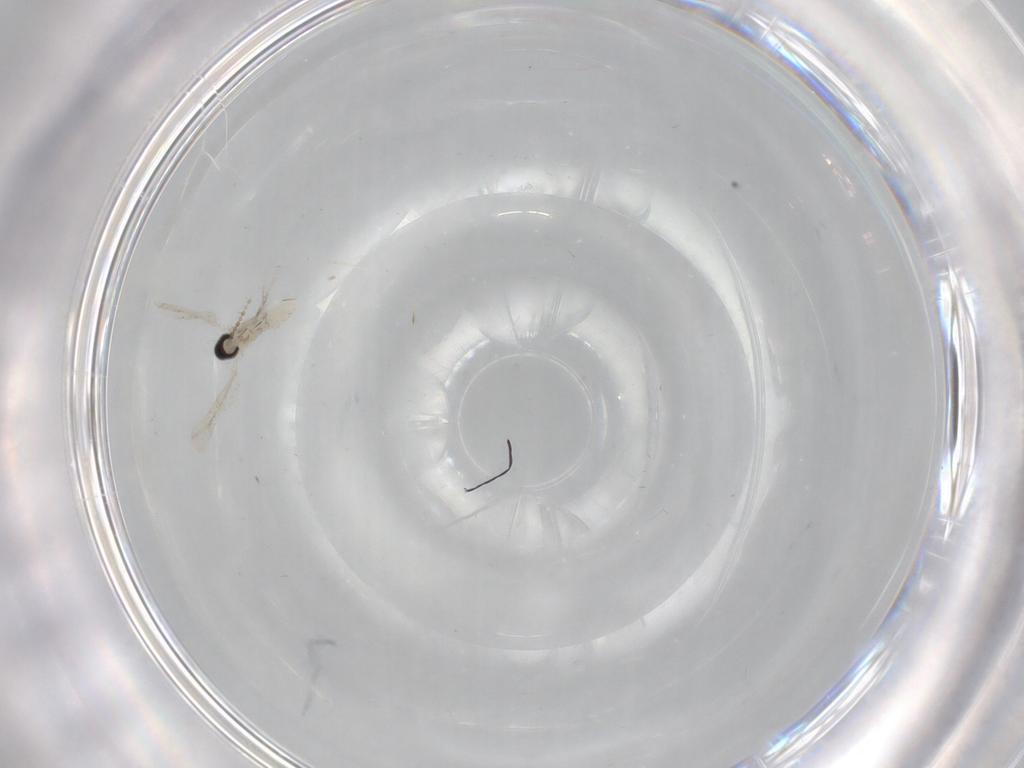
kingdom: Animalia
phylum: Arthropoda
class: Insecta
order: Diptera
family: Cecidomyiidae
